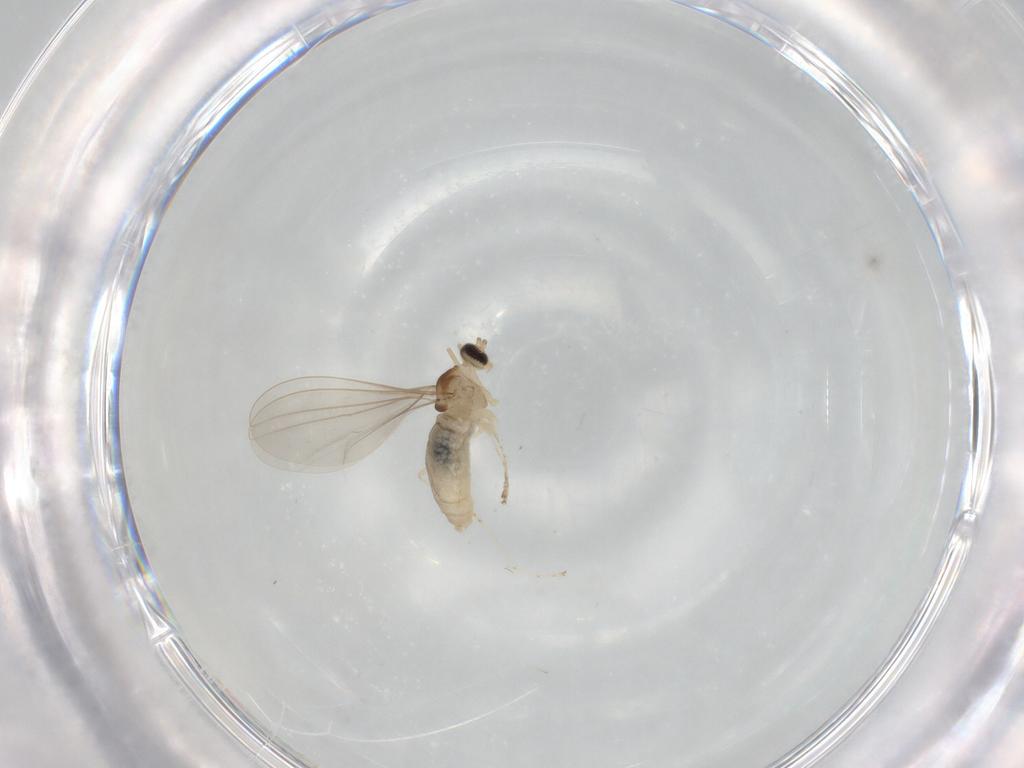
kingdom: Animalia
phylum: Arthropoda
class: Insecta
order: Diptera
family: Cecidomyiidae
